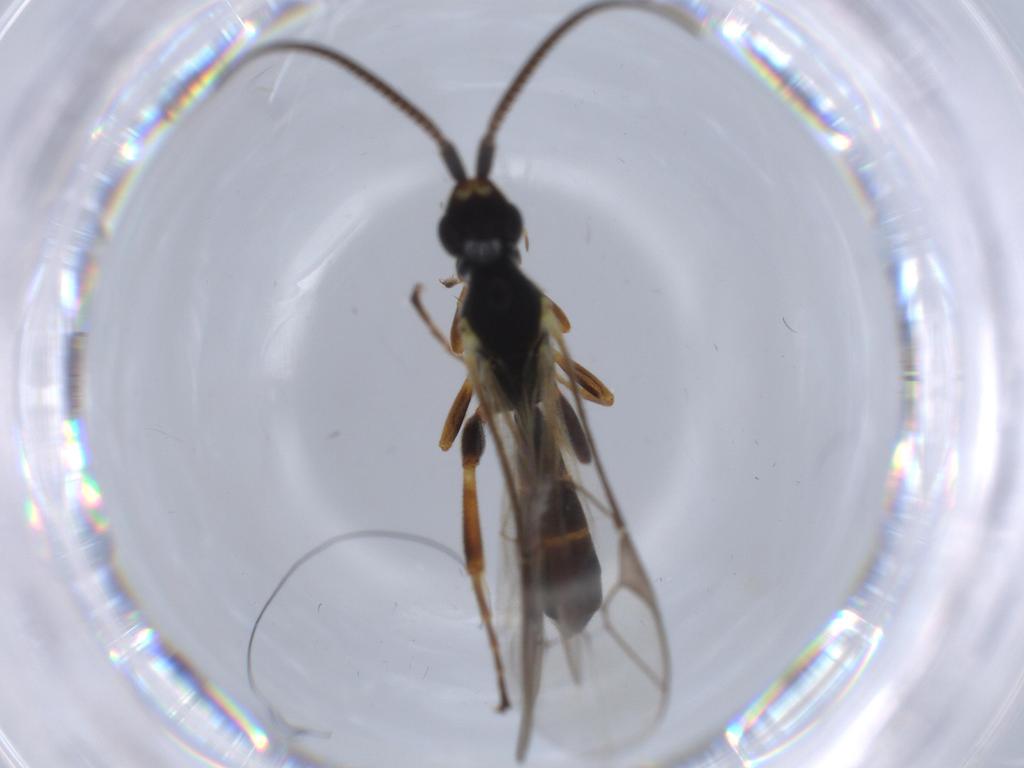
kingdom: Animalia
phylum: Arthropoda
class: Insecta
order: Hymenoptera
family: Ichneumonidae
